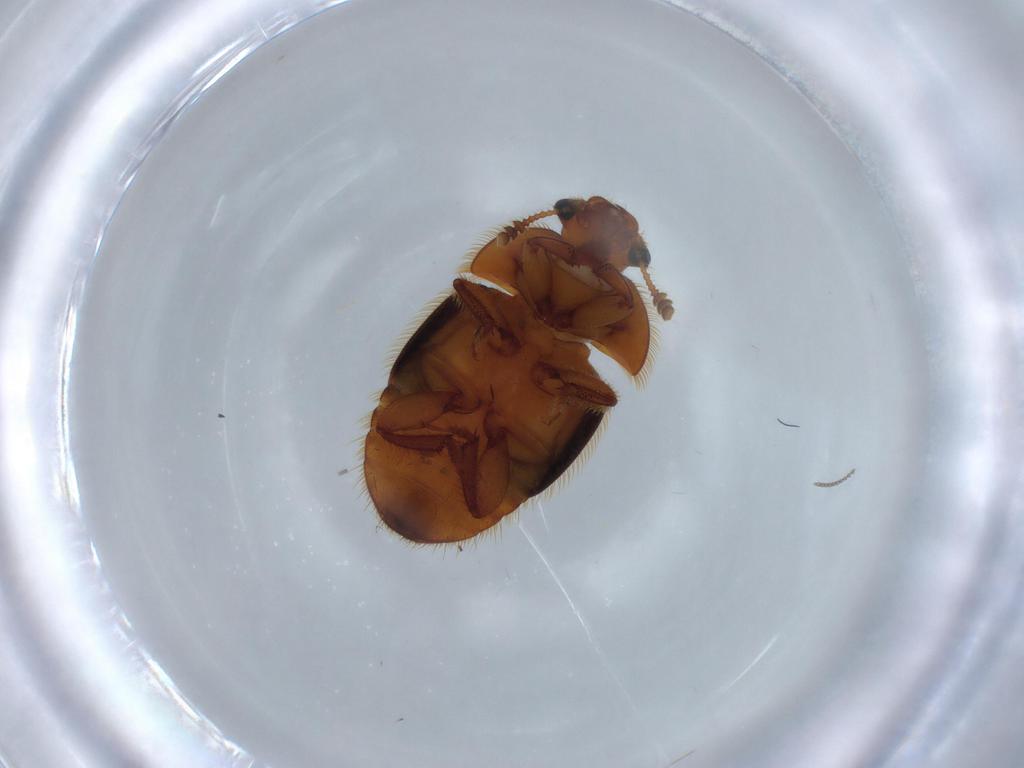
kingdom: Animalia
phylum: Arthropoda
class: Insecta
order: Coleoptera
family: Nitidulidae
